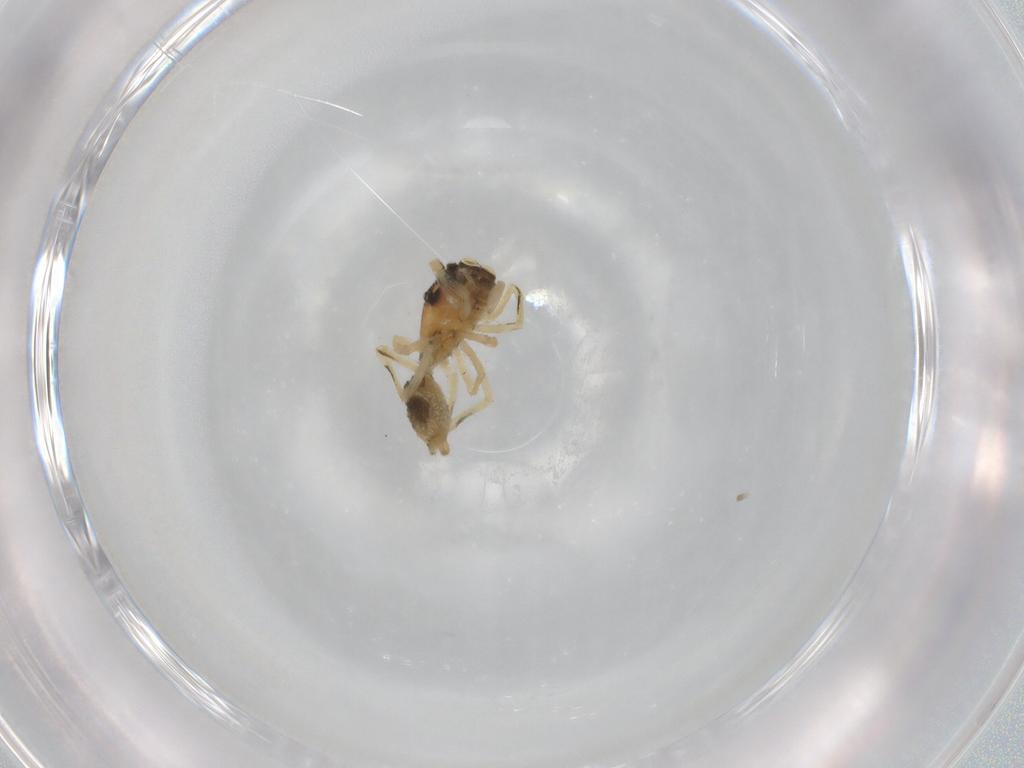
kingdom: Animalia
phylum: Arthropoda
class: Arachnida
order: Araneae
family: Salticidae
